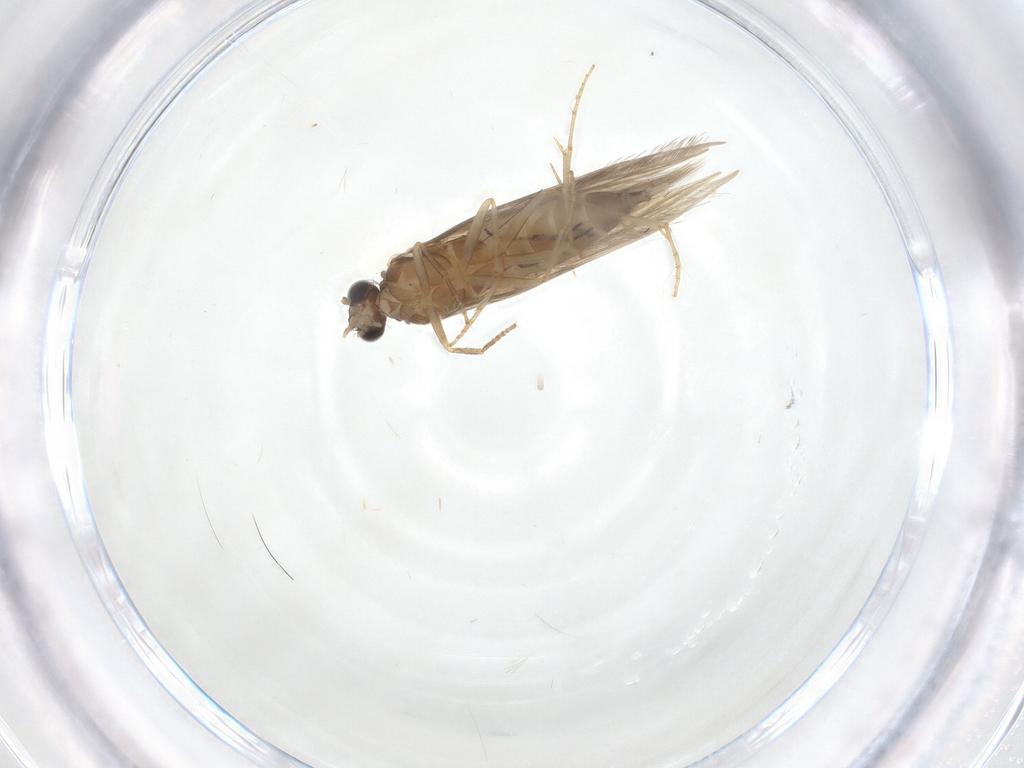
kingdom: Animalia
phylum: Arthropoda
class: Insecta
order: Trichoptera
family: Hydroptilidae
